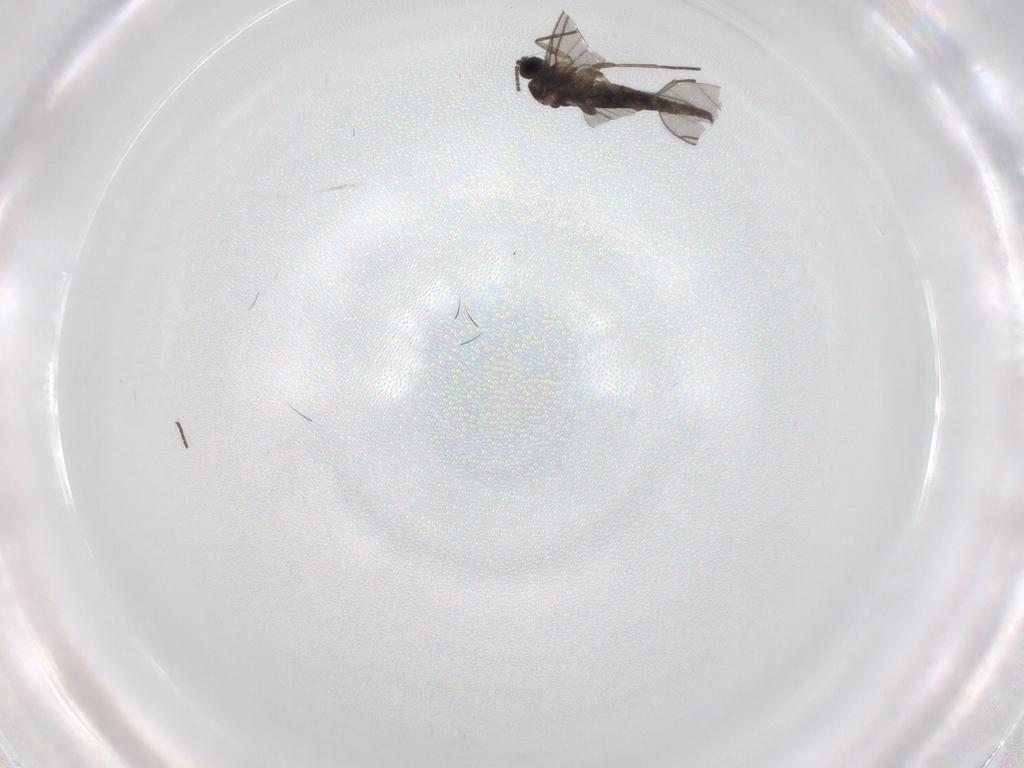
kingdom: Animalia
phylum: Arthropoda
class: Insecta
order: Diptera
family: Sciaridae
